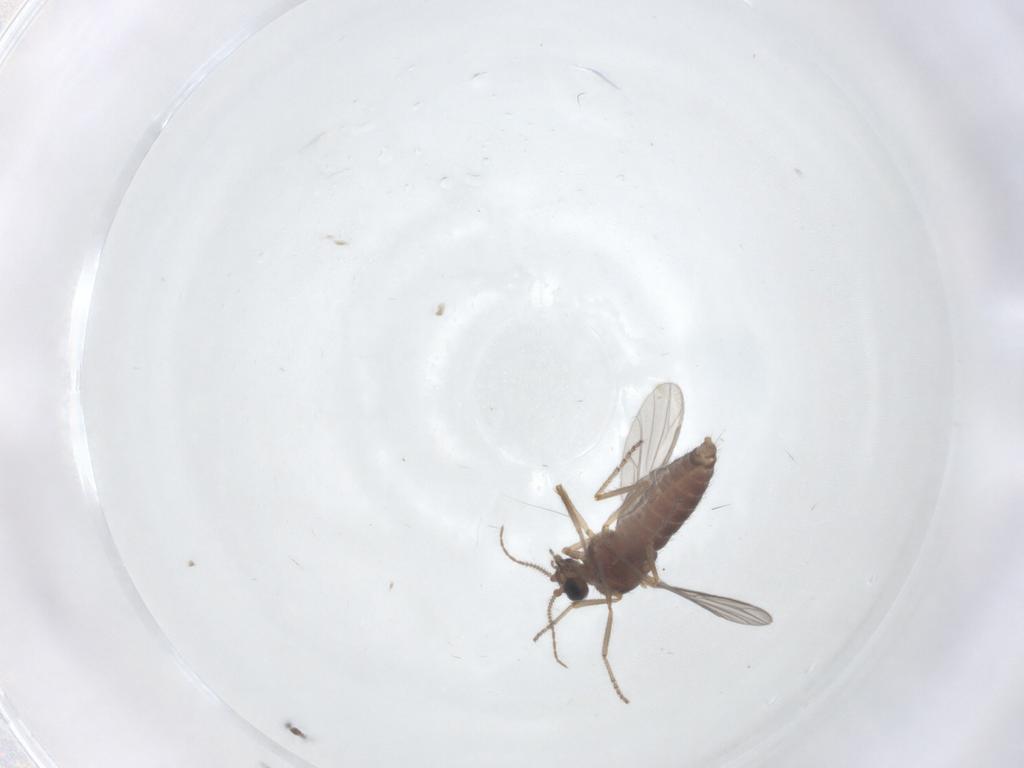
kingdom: Animalia
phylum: Arthropoda
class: Insecta
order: Diptera
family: Ceratopogonidae
